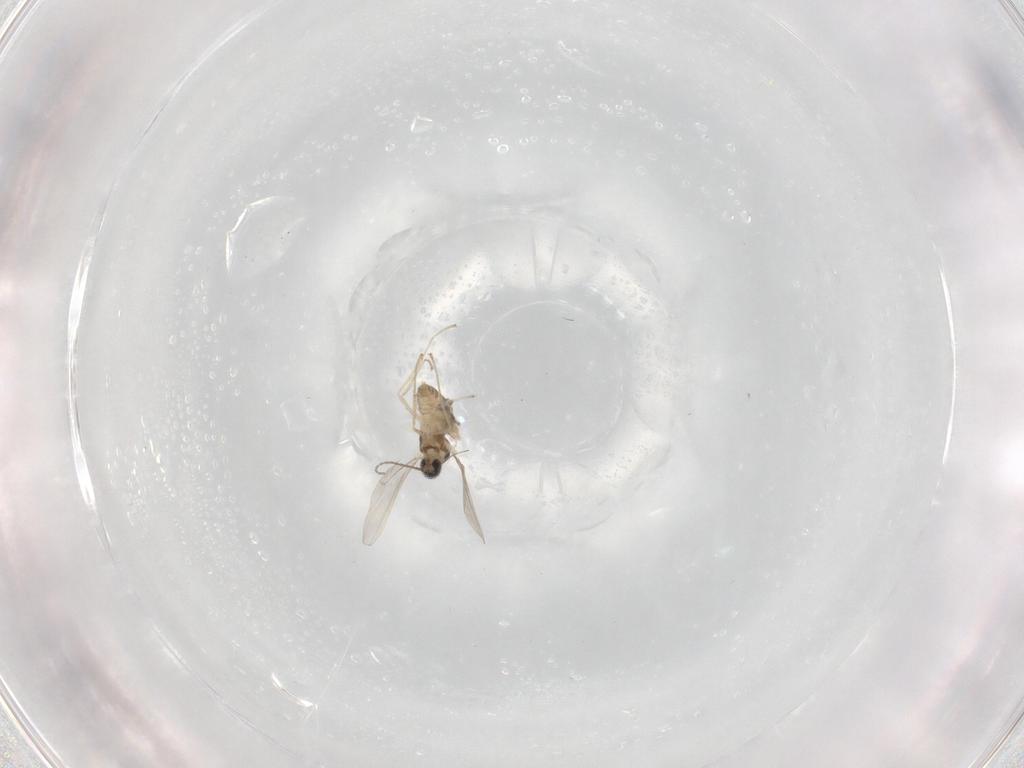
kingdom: Animalia
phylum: Arthropoda
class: Insecta
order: Diptera
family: Cecidomyiidae
